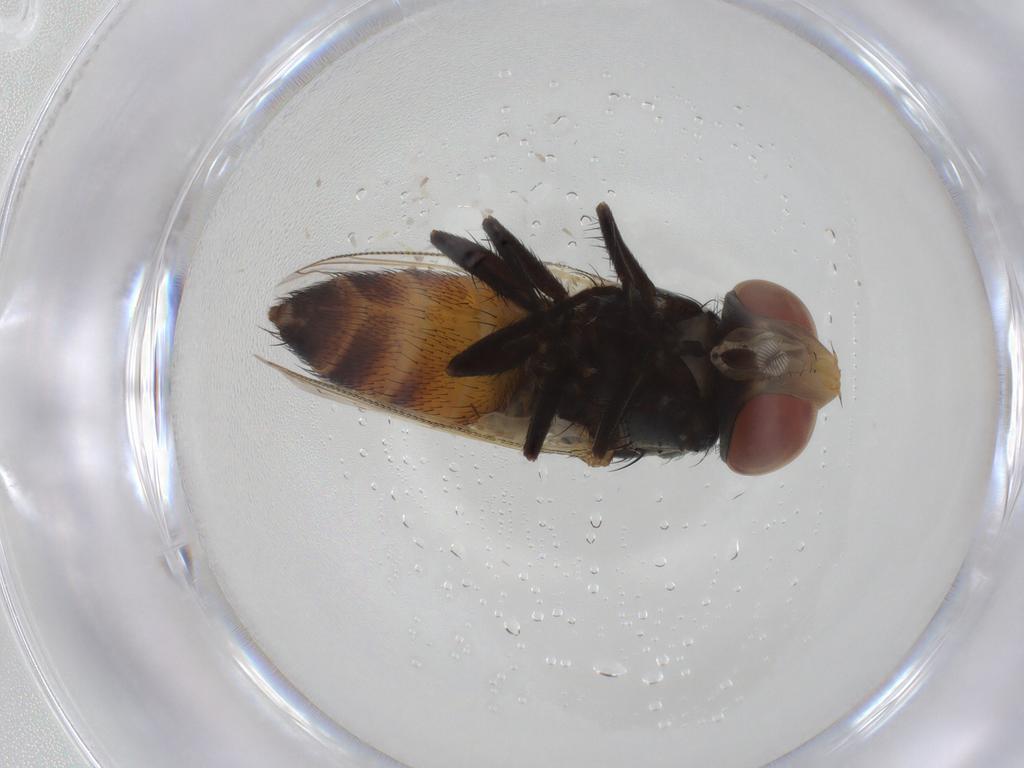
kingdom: Animalia
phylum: Arthropoda
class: Insecta
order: Diptera
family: Sarcophagidae
